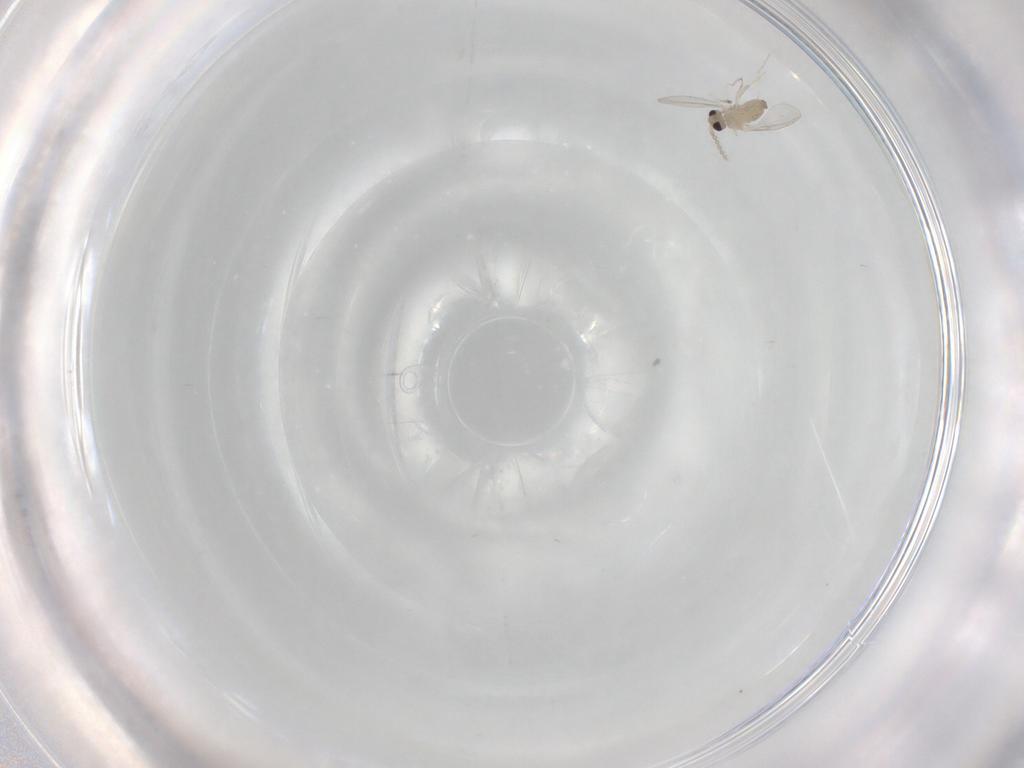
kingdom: Animalia
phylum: Arthropoda
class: Insecta
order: Diptera
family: Cecidomyiidae
